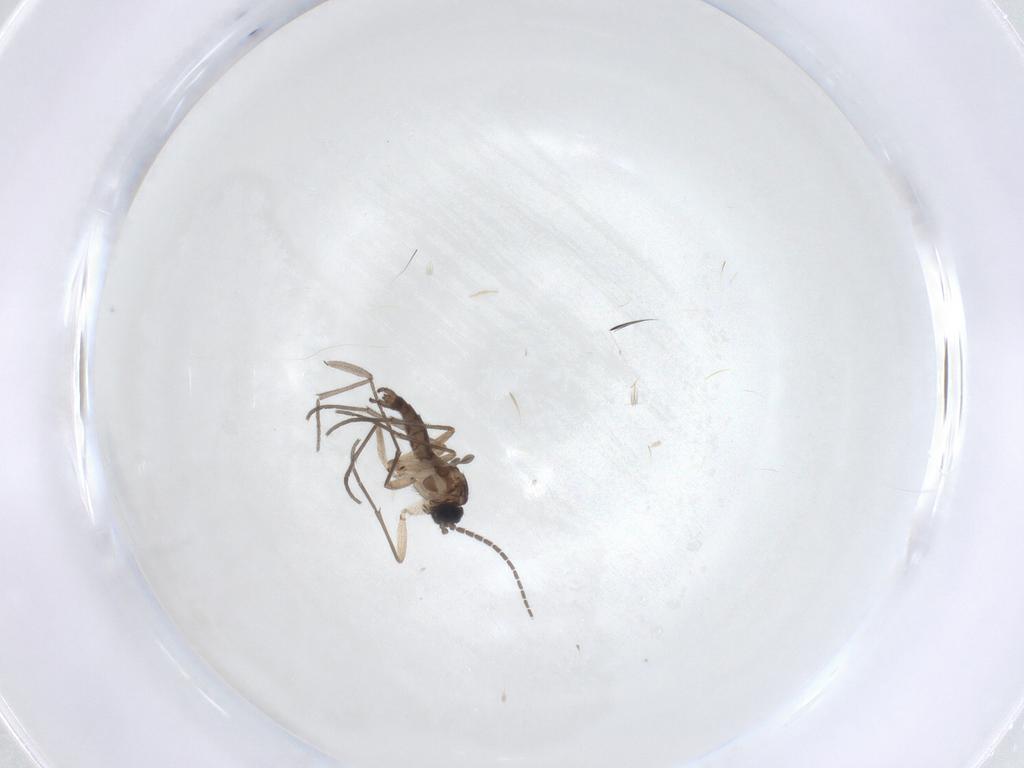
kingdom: Animalia
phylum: Arthropoda
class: Insecta
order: Diptera
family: Sciaridae
